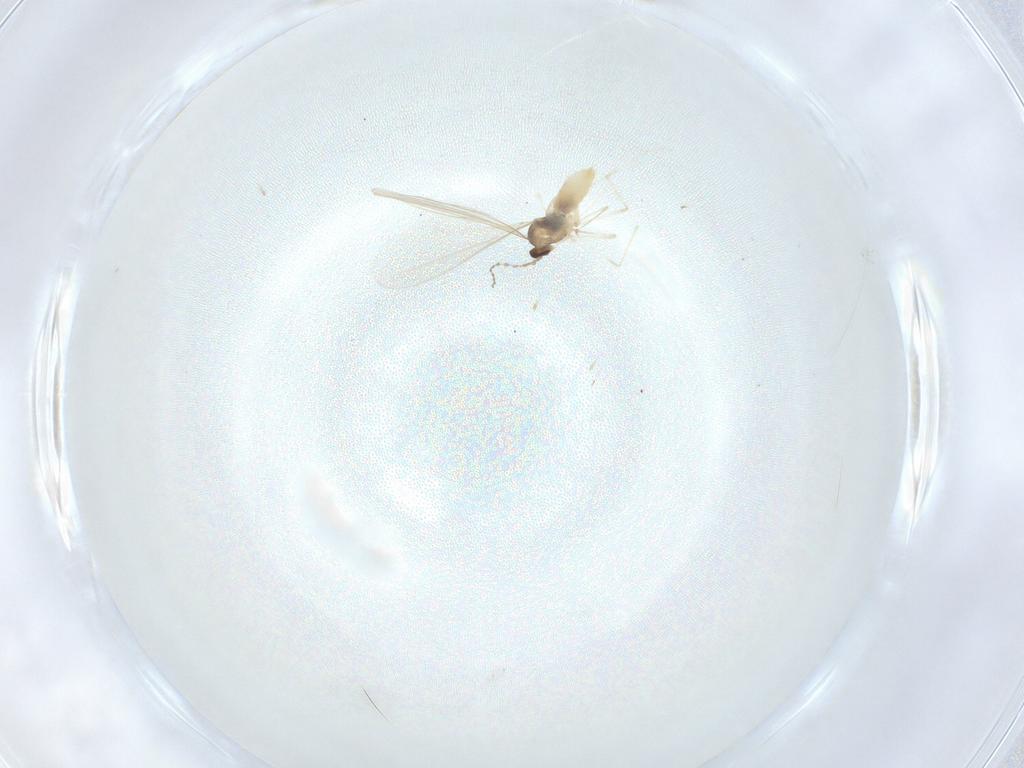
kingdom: Animalia
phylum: Arthropoda
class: Insecta
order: Diptera
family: Cecidomyiidae
